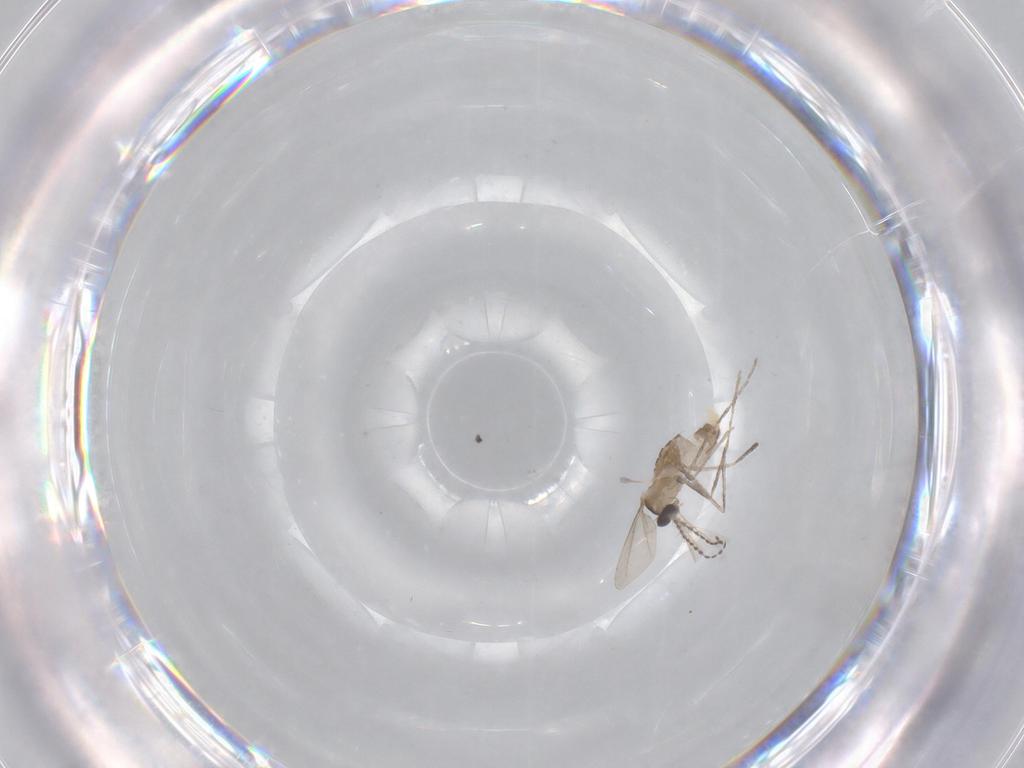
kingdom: Animalia
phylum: Arthropoda
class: Insecta
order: Diptera
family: Cecidomyiidae
